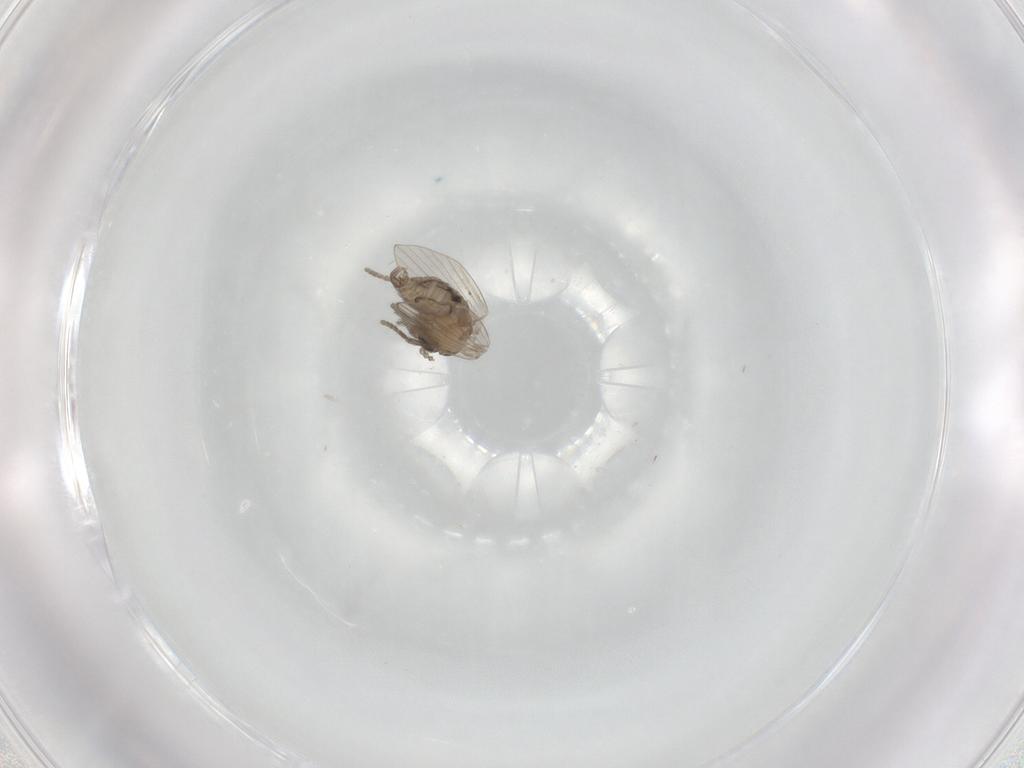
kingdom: Animalia
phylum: Arthropoda
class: Insecta
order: Diptera
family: Psychodidae
